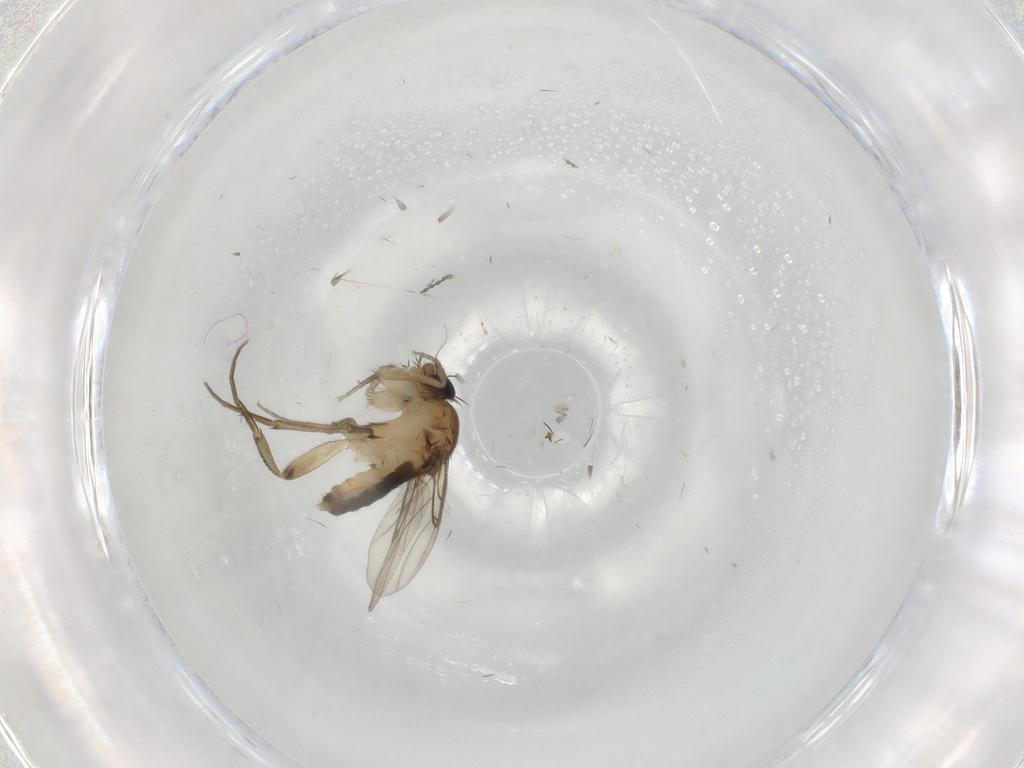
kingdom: Animalia
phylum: Arthropoda
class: Insecta
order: Diptera
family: Phoridae
